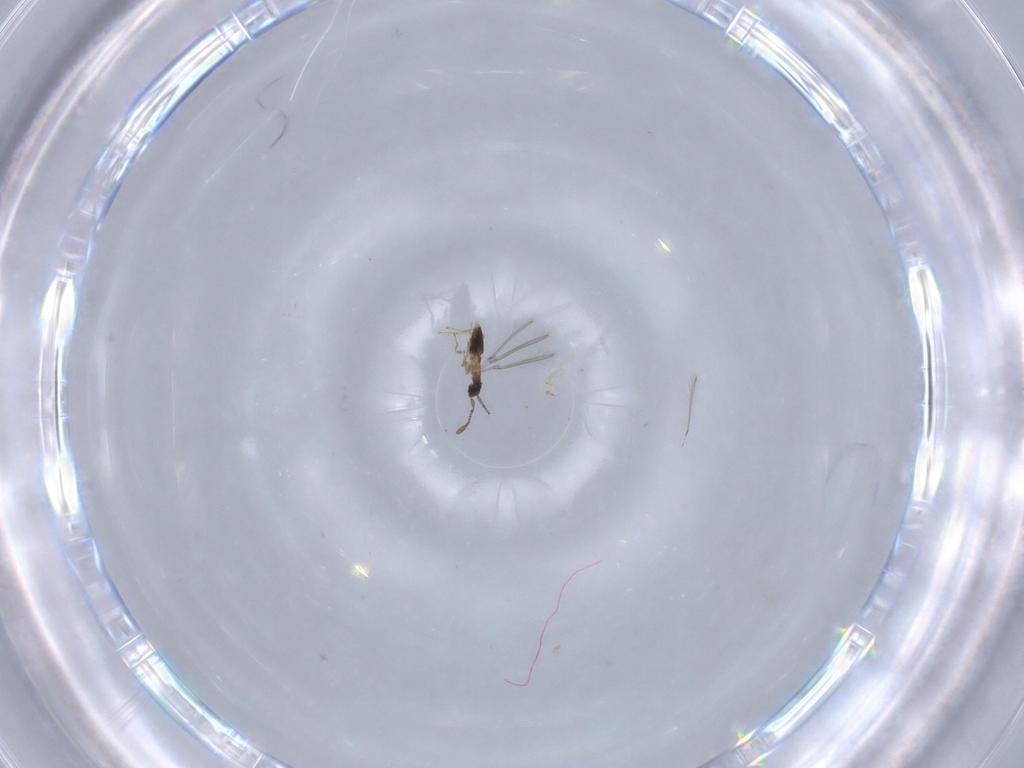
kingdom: Animalia
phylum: Arthropoda
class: Insecta
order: Hymenoptera
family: Mymaridae
